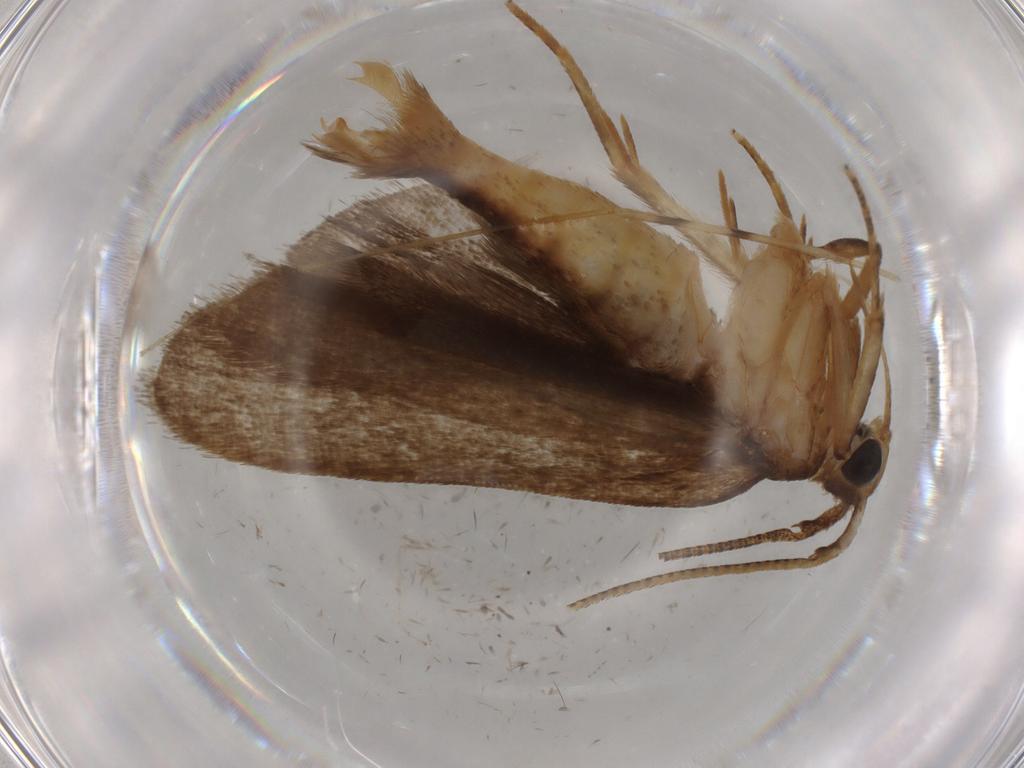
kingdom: Animalia
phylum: Arthropoda
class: Insecta
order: Lepidoptera
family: Autostichidae
